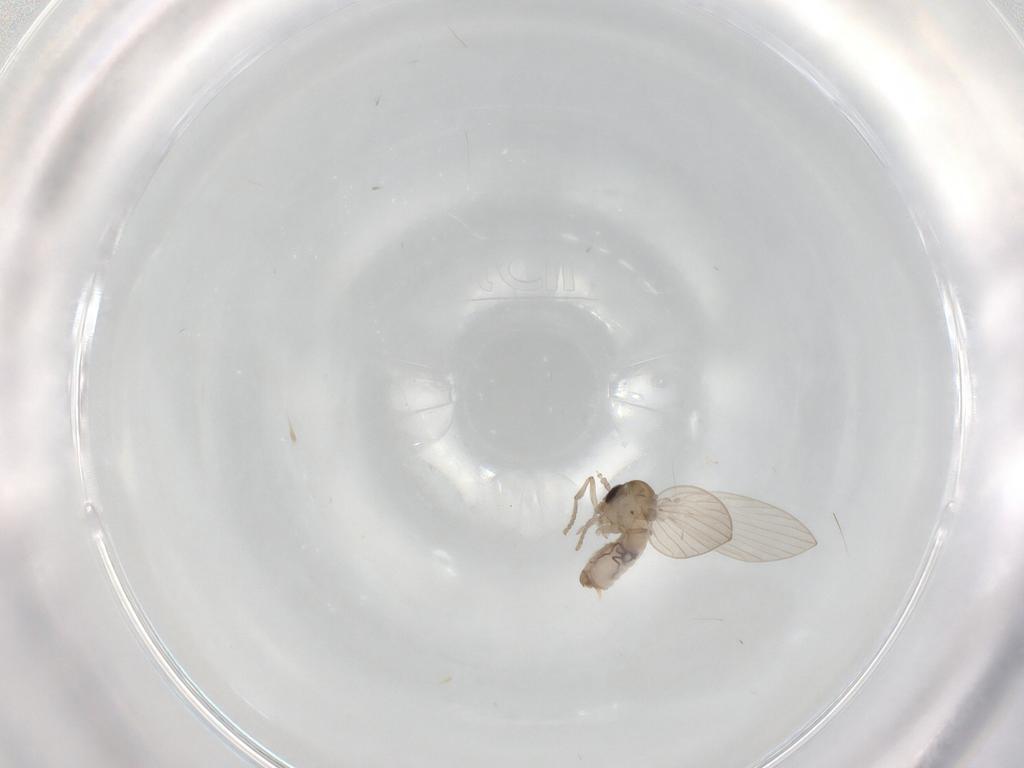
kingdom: Animalia
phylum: Arthropoda
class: Insecta
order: Diptera
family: Psychodidae
